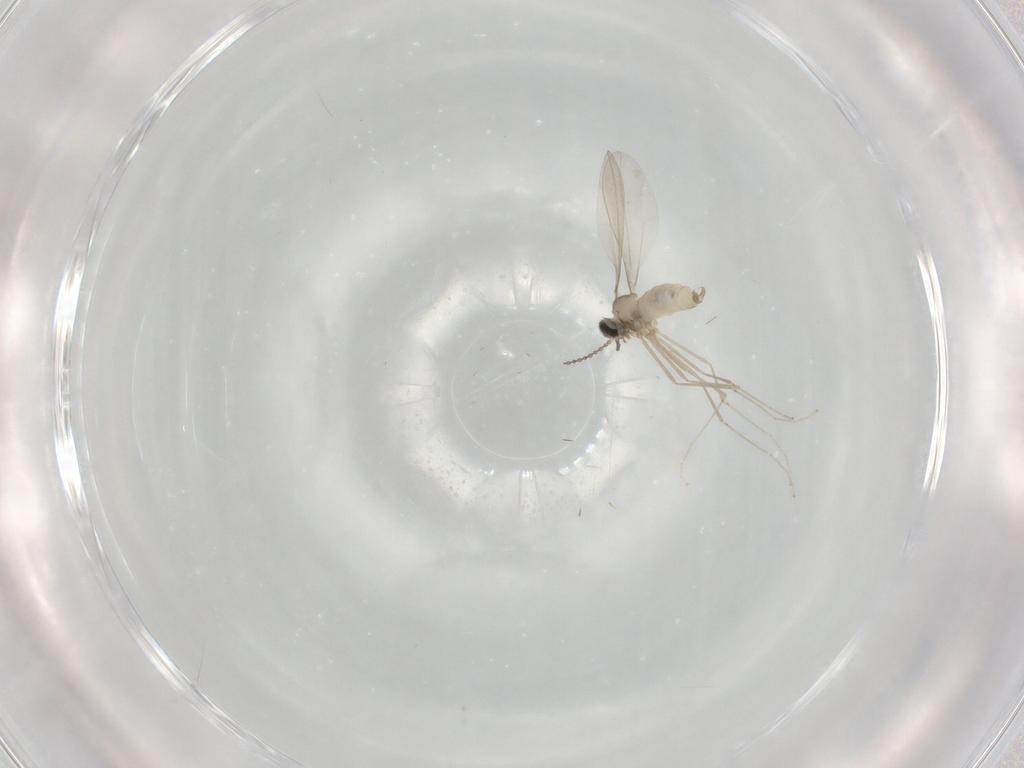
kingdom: Animalia
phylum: Arthropoda
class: Insecta
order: Diptera
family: Cecidomyiidae
